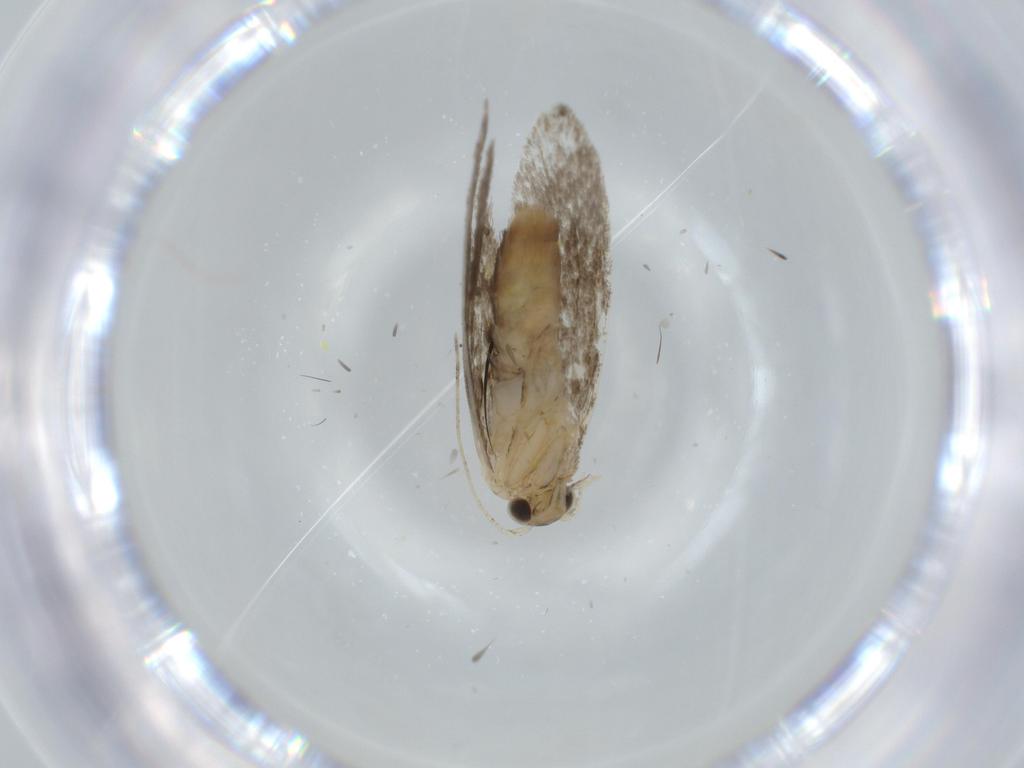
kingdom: Animalia
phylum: Arthropoda
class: Insecta
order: Lepidoptera
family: Tineidae
